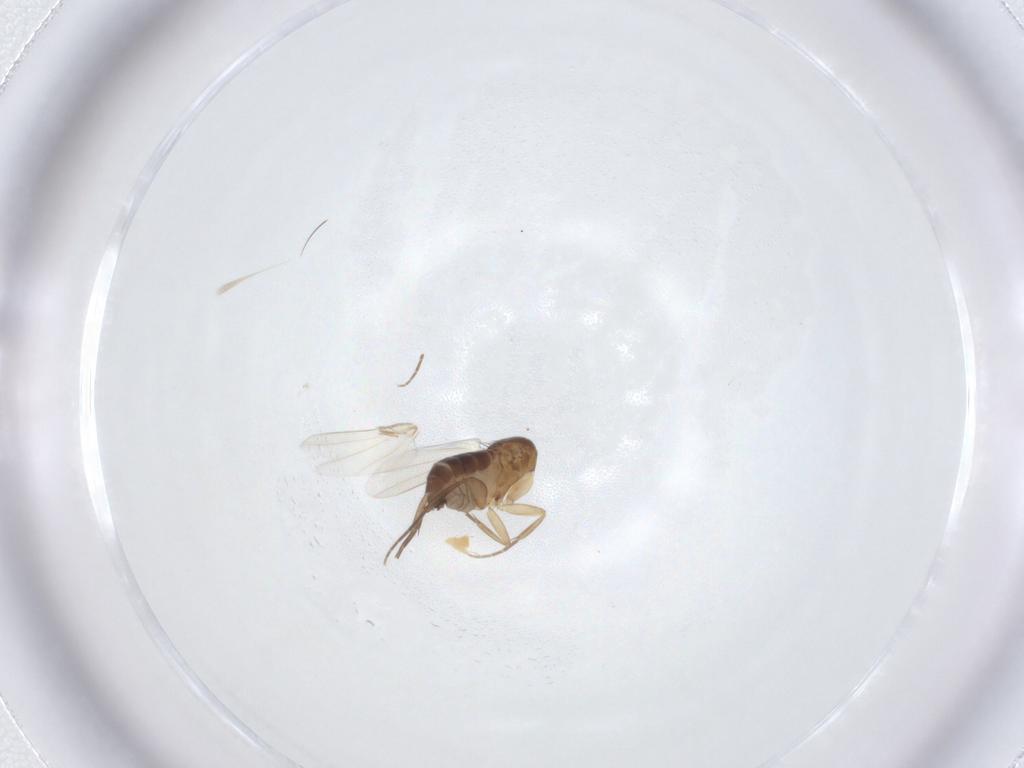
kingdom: Animalia
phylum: Arthropoda
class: Insecta
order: Diptera
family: Phoridae
